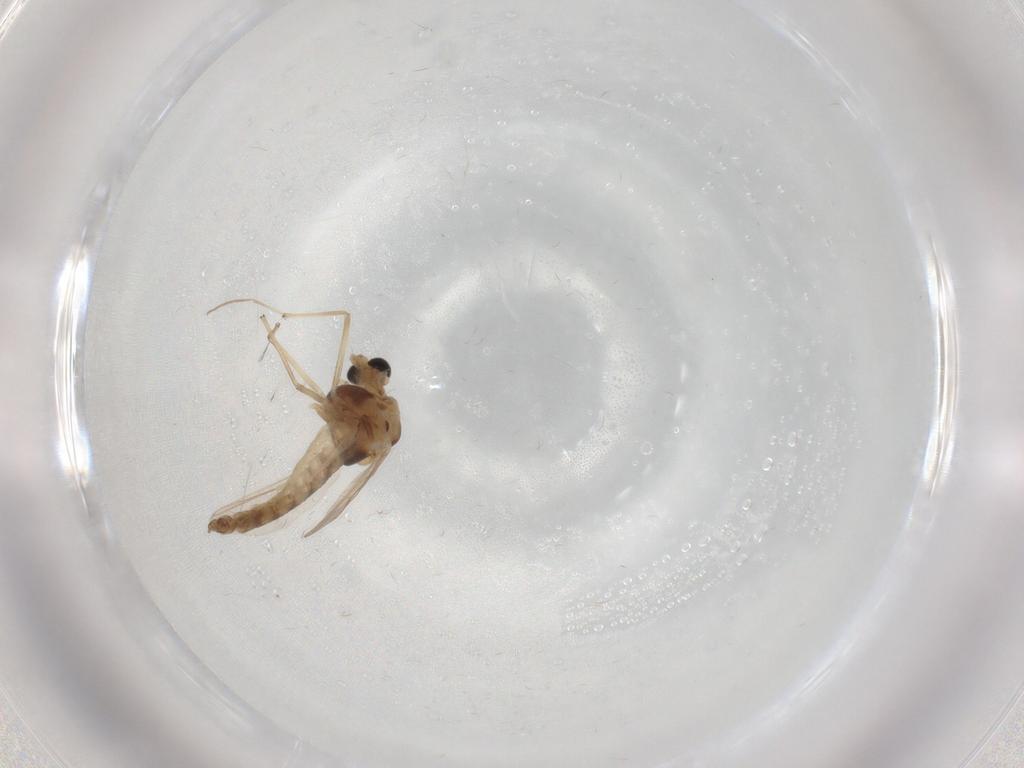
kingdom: Animalia
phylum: Arthropoda
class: Insecta
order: Diptera
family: Chironomidae
